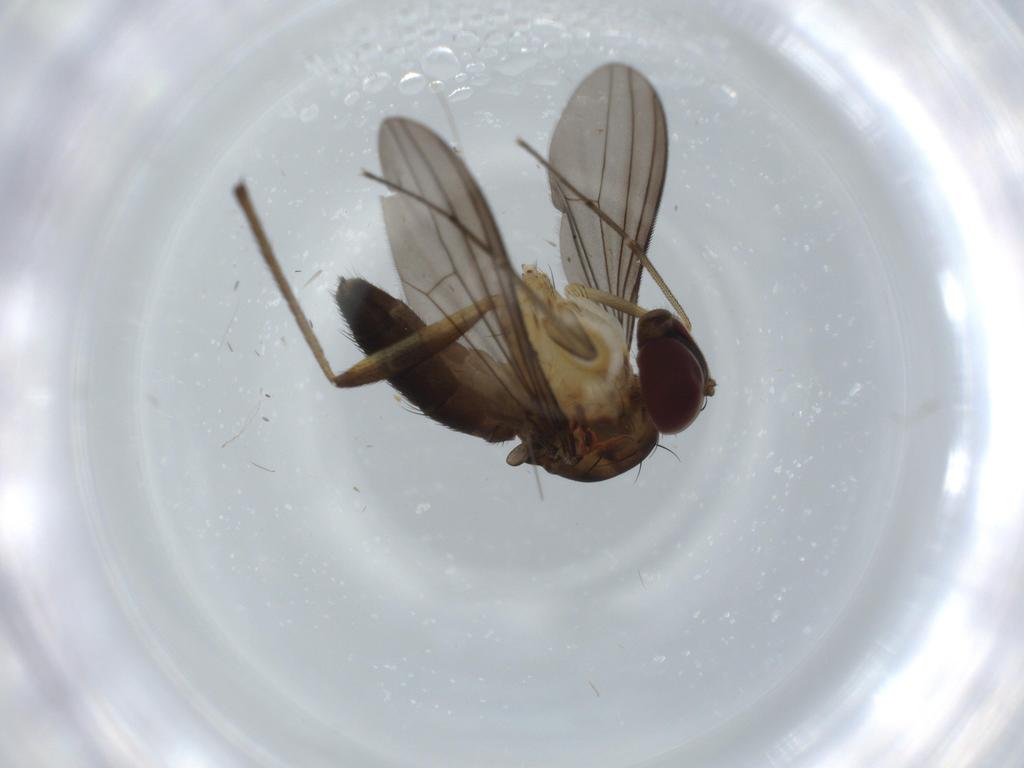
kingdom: Animalia
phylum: Arthropoda
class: Insecta
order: Diptera
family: Dolichopodidae
